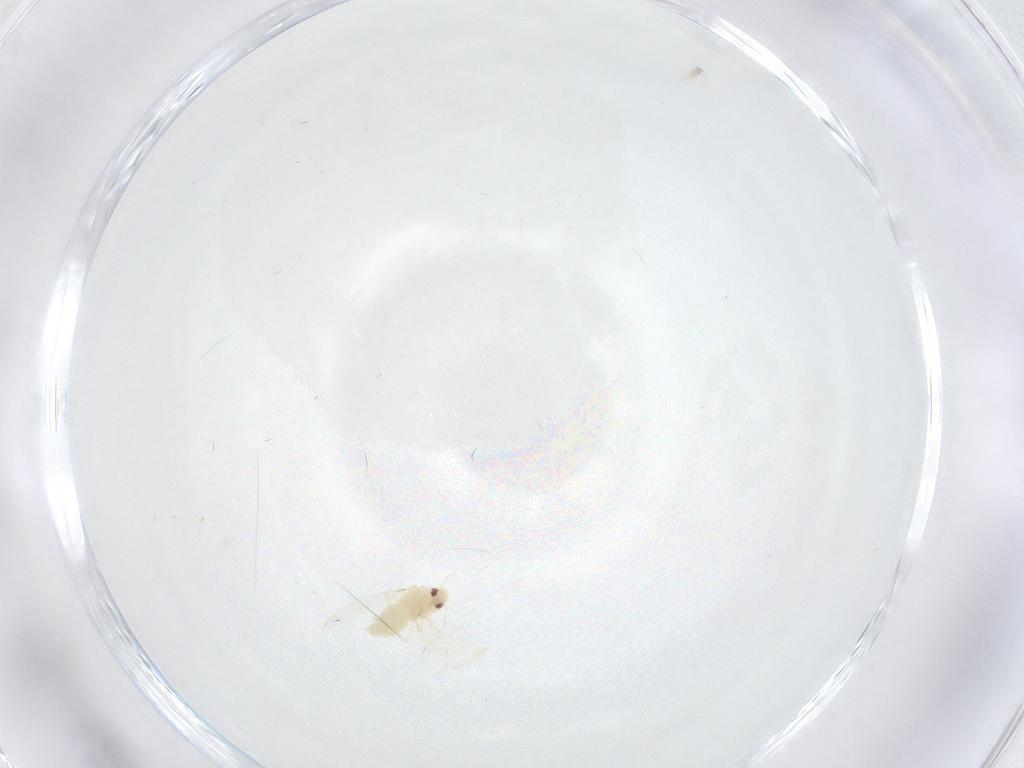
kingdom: Animalia
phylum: Arthropoda
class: Insecta
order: Hemiptera
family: Aleyrodidae
